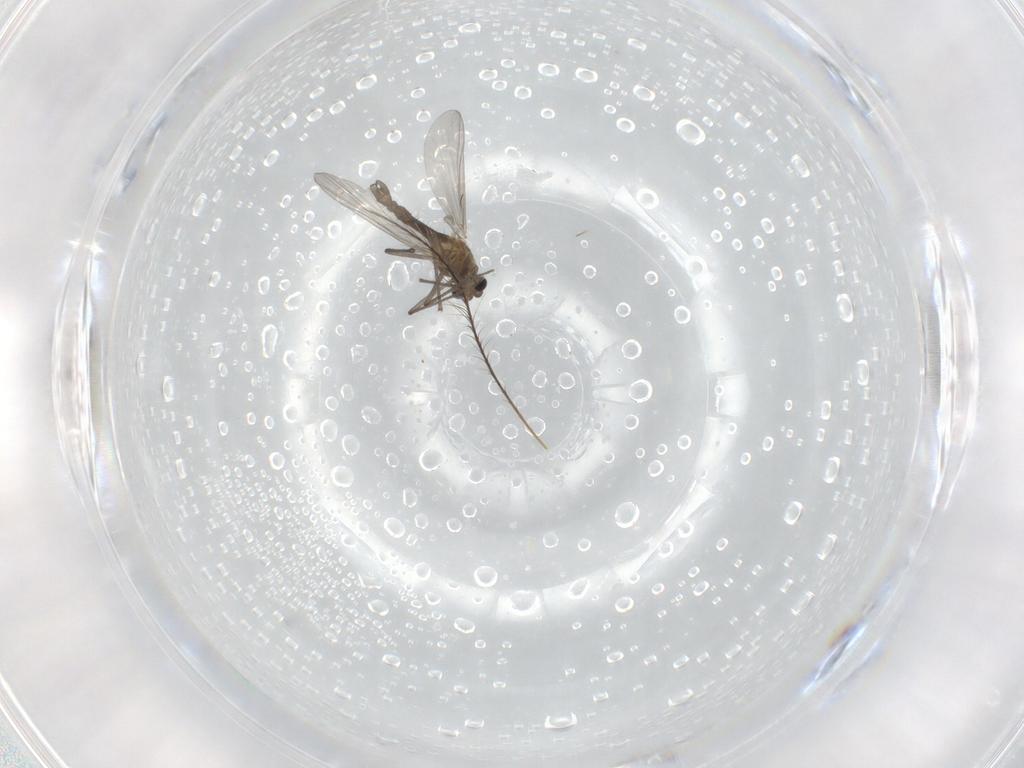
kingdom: Animalia
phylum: Arthropoda
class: Insecta
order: Diptera
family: Chironomidae
